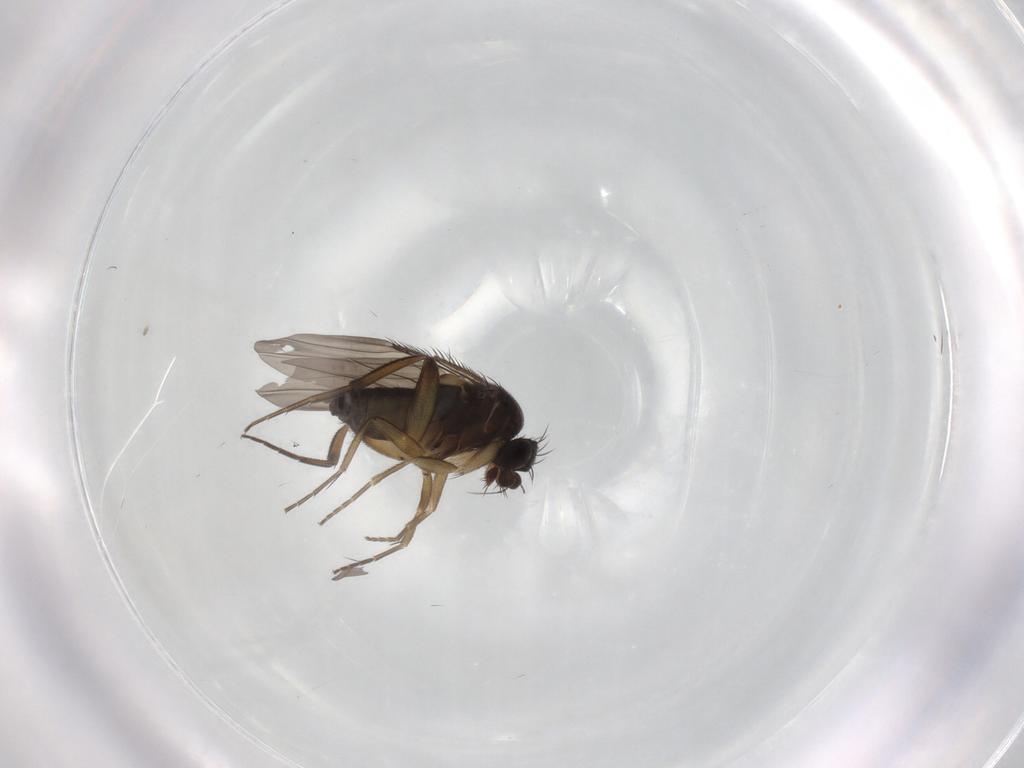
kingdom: Animalia
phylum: Arthropoda
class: Insecta
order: Diptera
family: Phoridae
